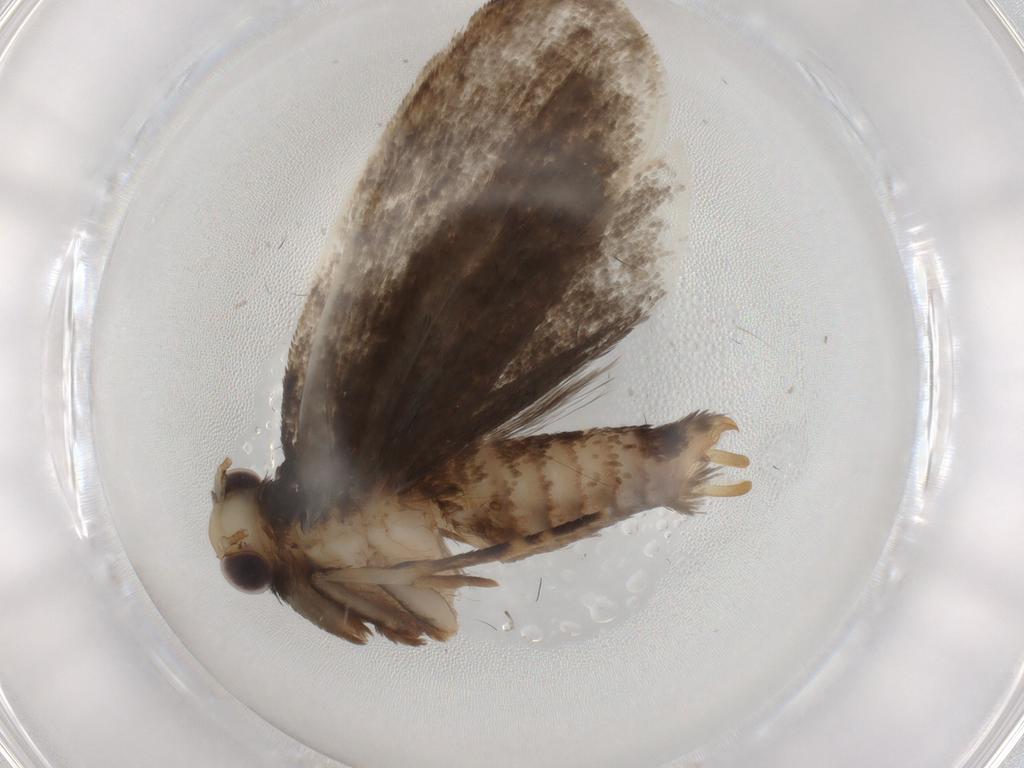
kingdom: Animalia
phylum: Arthropoda
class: Insecta
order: Lepidoptera
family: Tineidae
